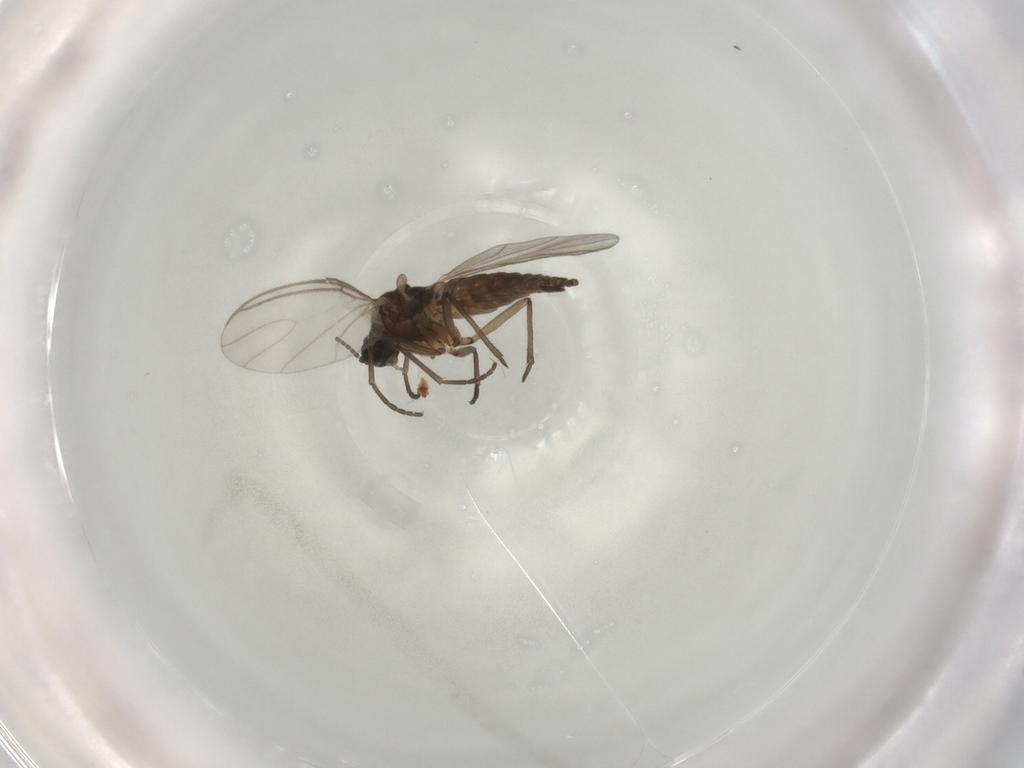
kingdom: Animalia
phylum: Arthropoda
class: Insecta
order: Diptera
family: Sciaridae
